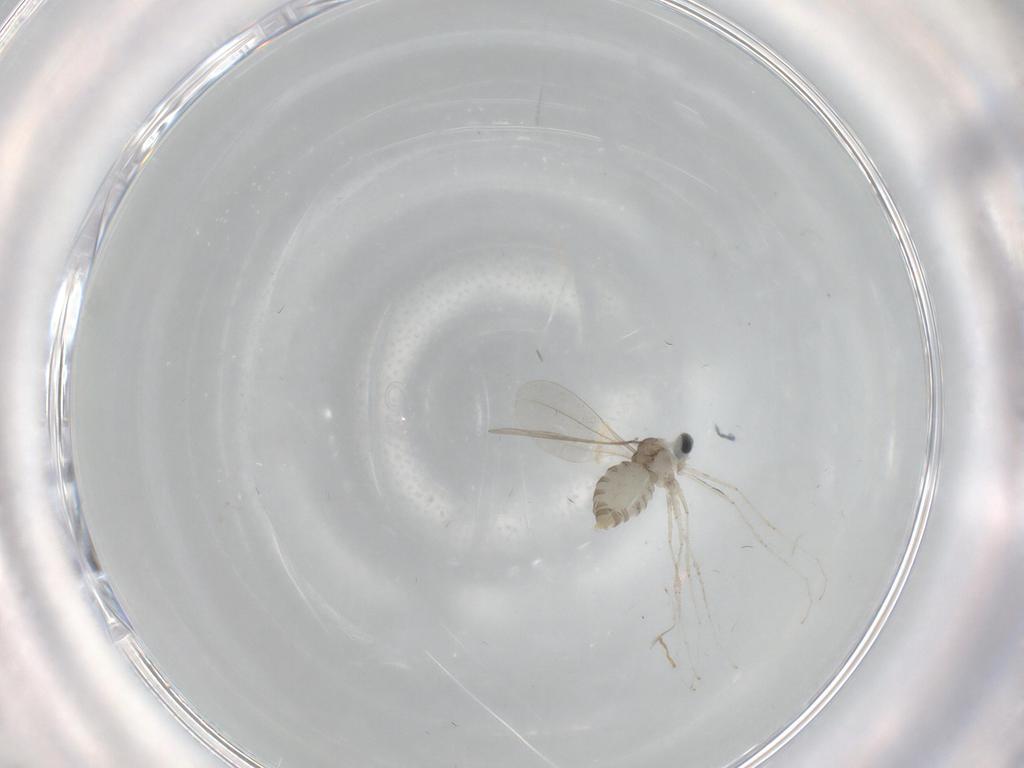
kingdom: Animalia
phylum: Arthropoda
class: Insecta
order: Diptera
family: Cecidomyiidae
